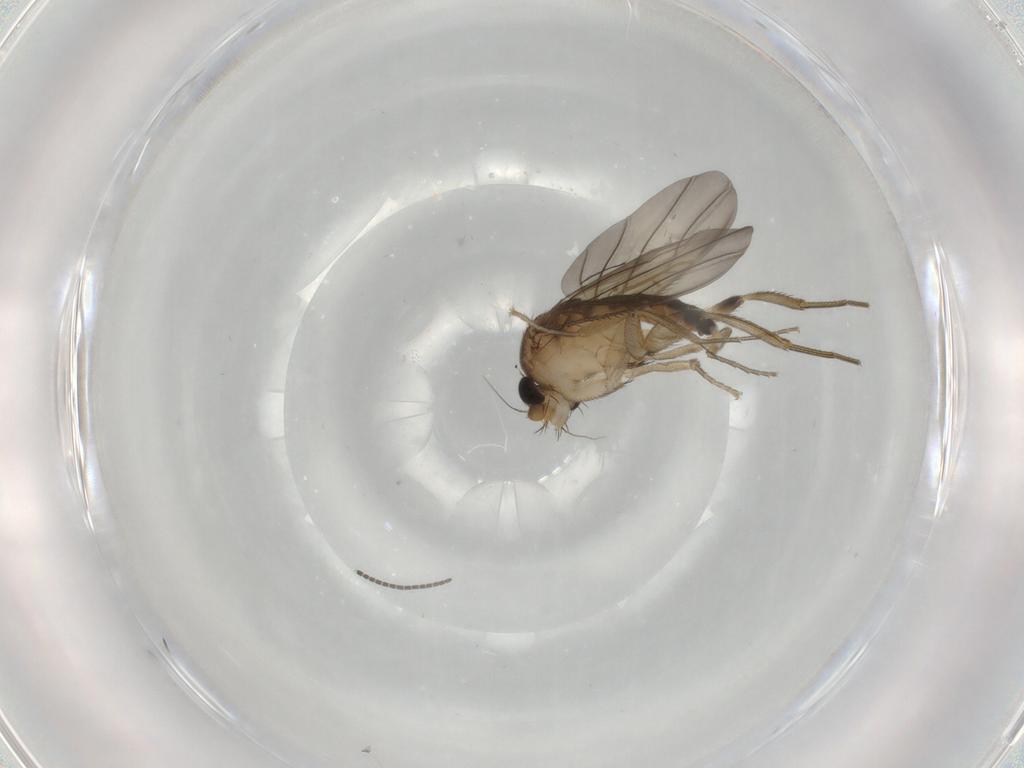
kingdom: Animalia
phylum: Arthropoda
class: Insecta
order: Diptera
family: Phoridae
